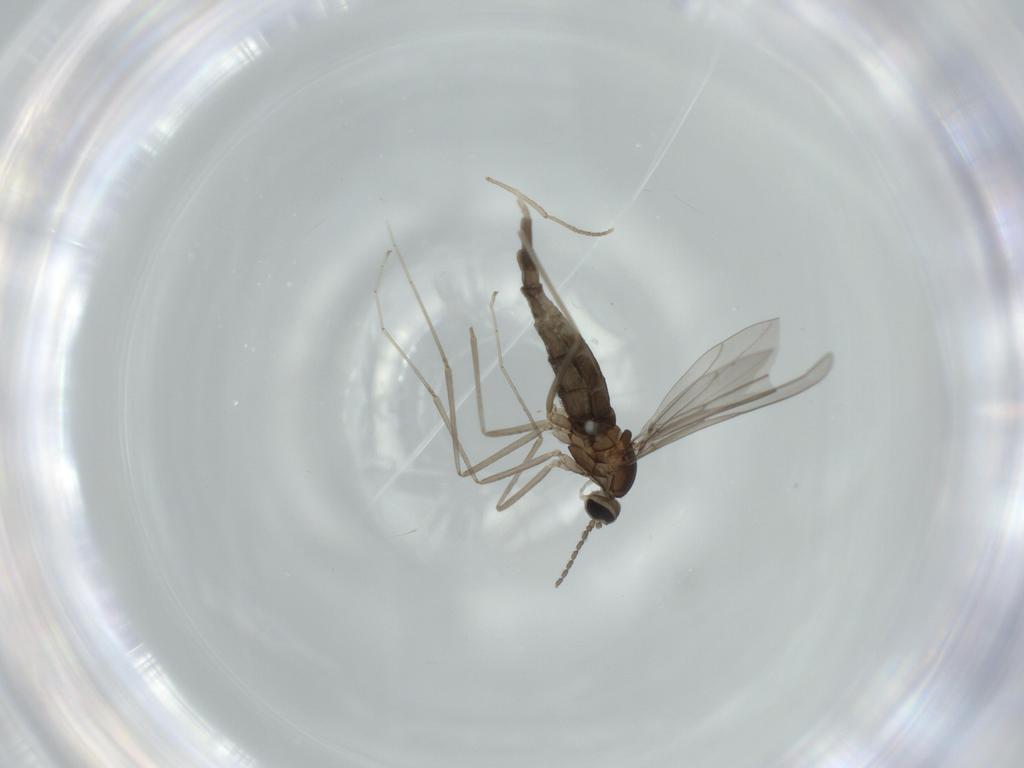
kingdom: Animalia
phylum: Arthropoda
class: Insecta
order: Diptera
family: Cecidomyiidae
